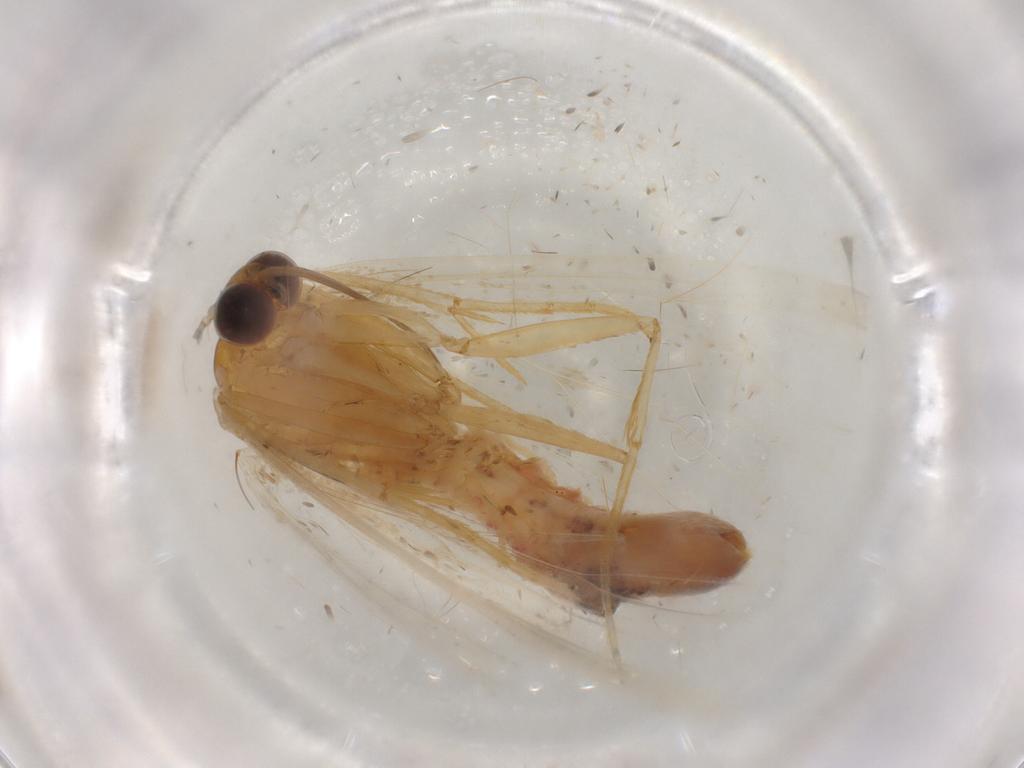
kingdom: Animalia
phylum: Arthropoda
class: Insecta
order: Lepidoptera
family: Geometridae
